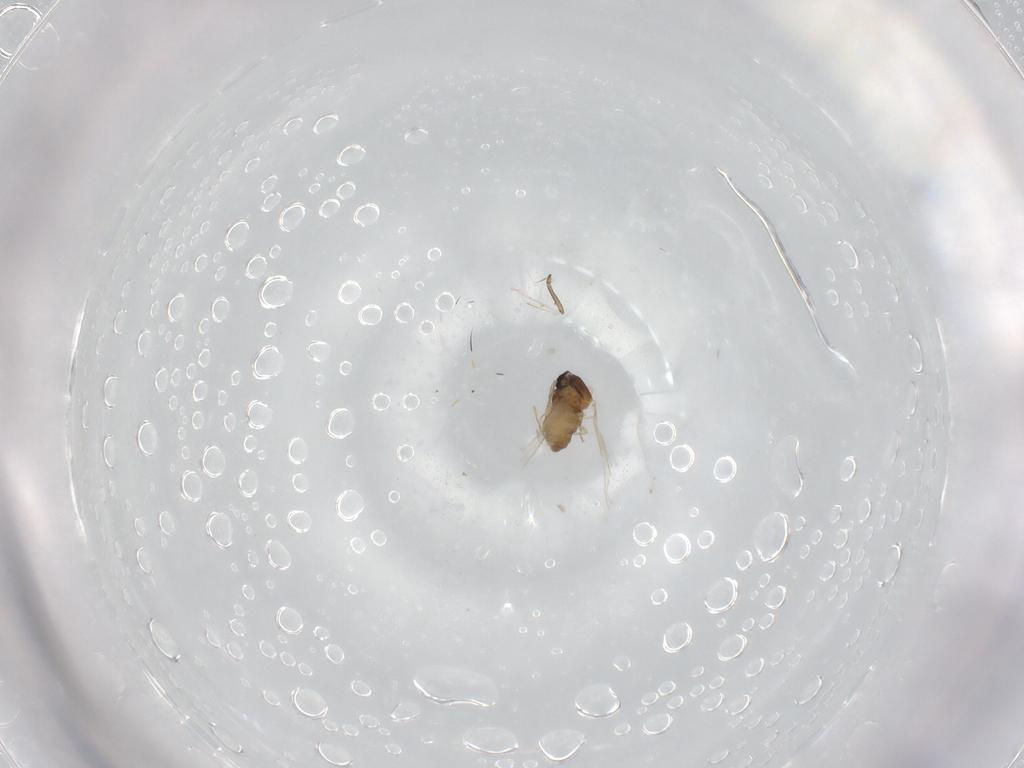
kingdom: Animalia
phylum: Arthropoda
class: Insecta
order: Diptera
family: Cecidomyiidae
